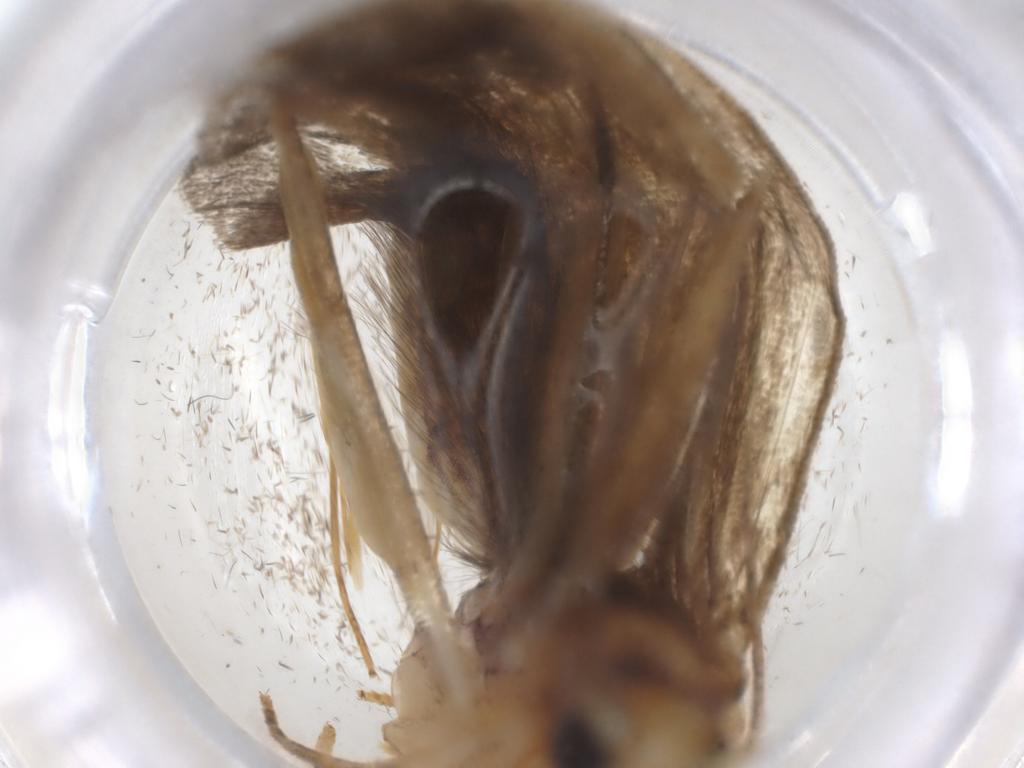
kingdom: Animalia
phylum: Arthropoda
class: Insecta
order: Lepidoptera
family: Depressariidae
